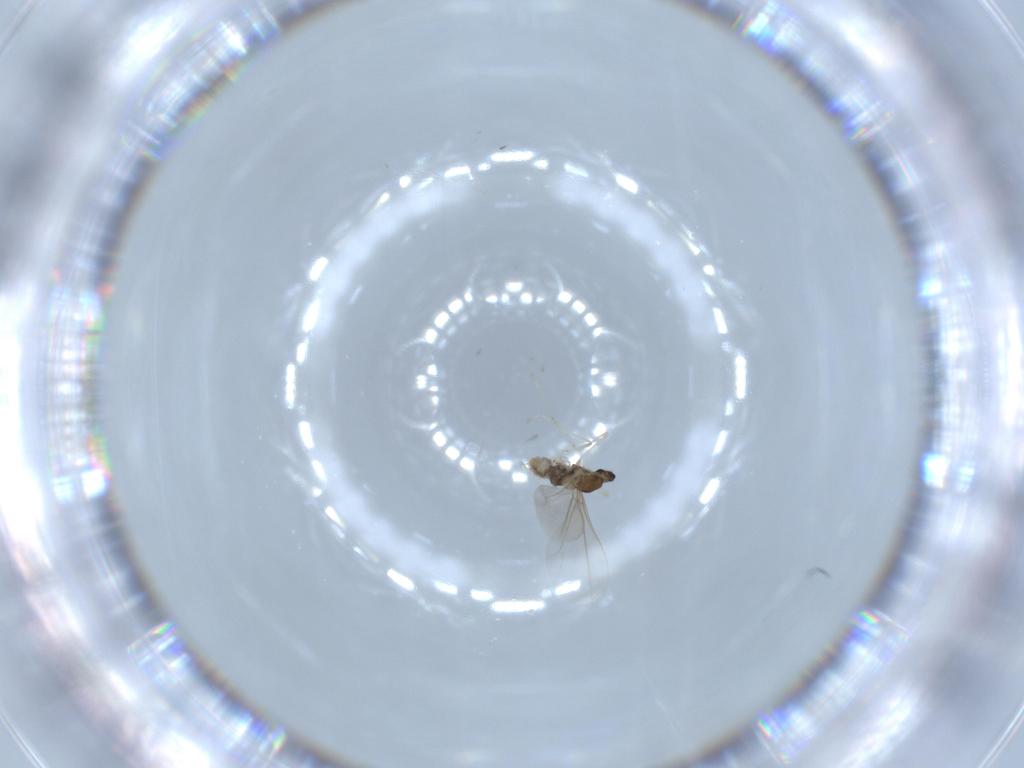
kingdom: Animalia
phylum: Arthropoda
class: Insecta
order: Diptera
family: Cecidomyiidae
